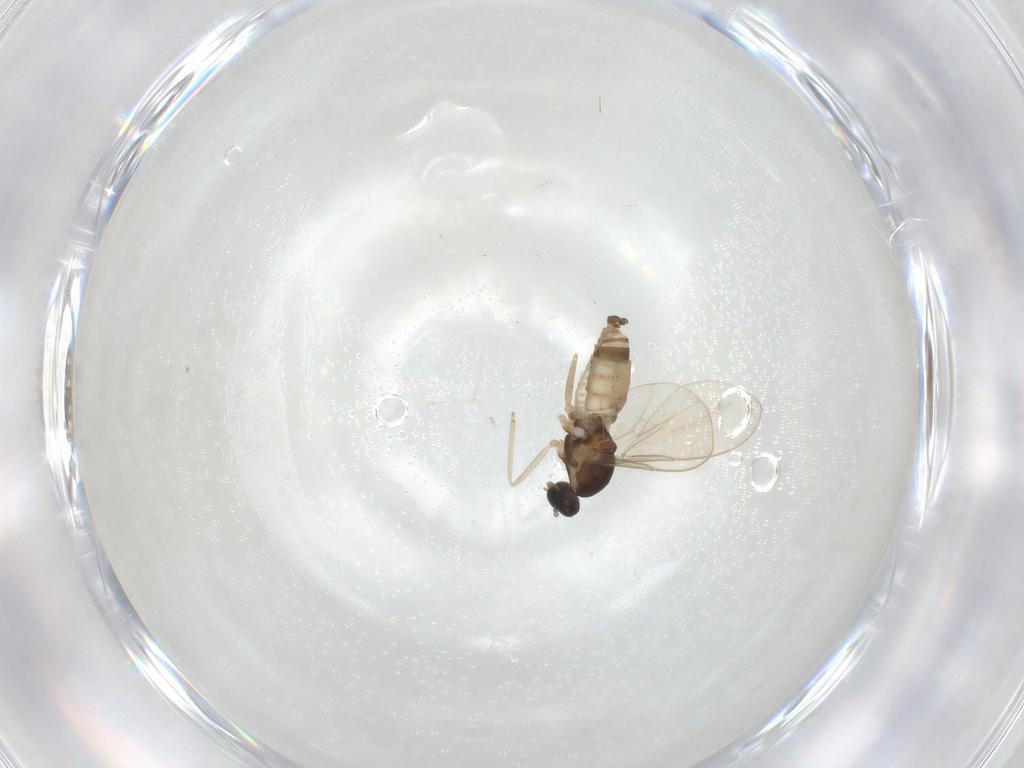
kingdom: Animalia
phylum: Arthropoda
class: Insecta
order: Diptera
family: Cecidomyiidae
